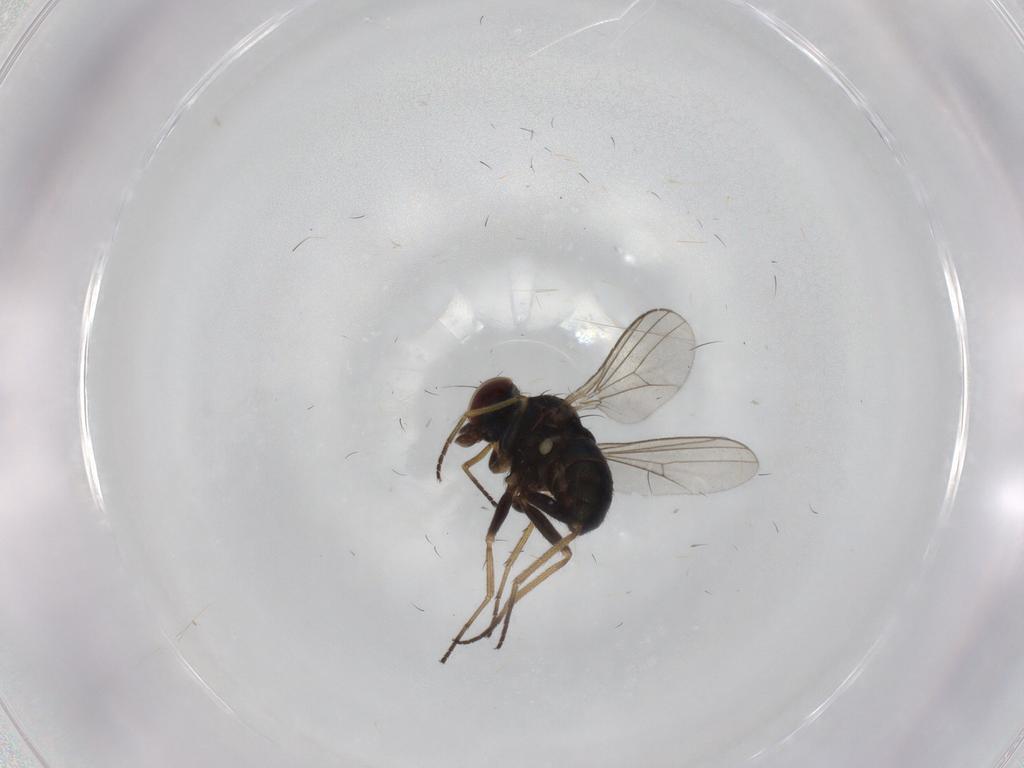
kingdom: Animalia
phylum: Arthropoda
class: Insecta
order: Diptera
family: Dolichopodidae
